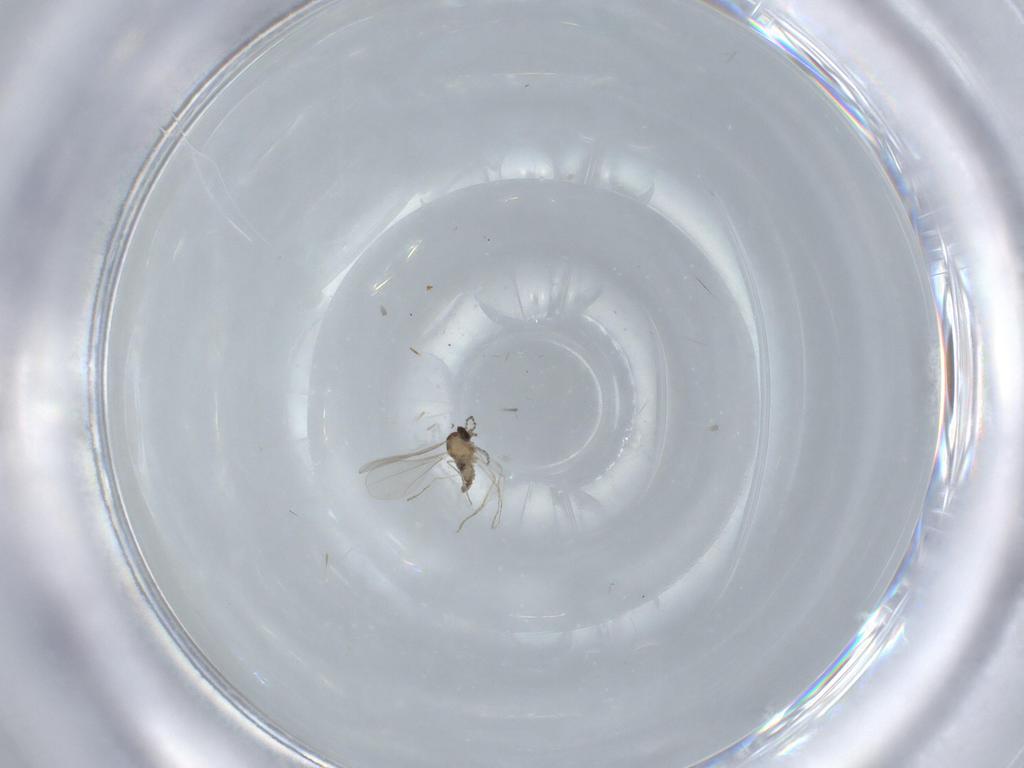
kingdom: Animalia
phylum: Arthropoda
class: Insecta
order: Diptera
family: Cecidomyiidae
